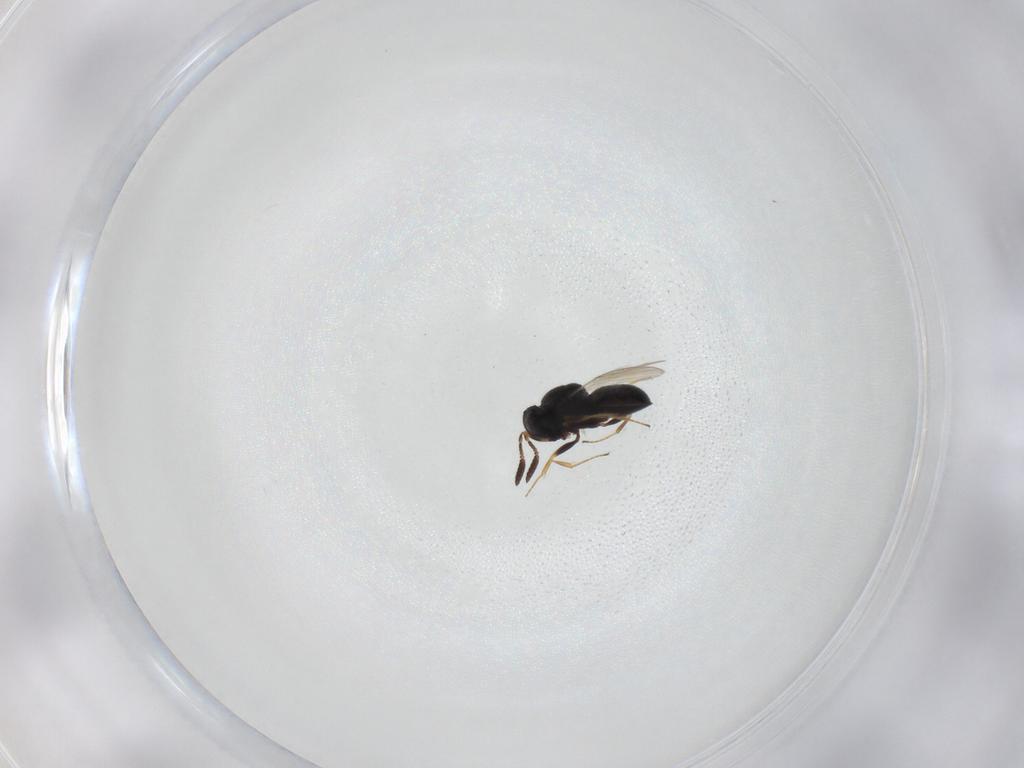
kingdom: Animalia
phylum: Arthropoda
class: Insecta
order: Hymenoptera
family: Scelionidae
